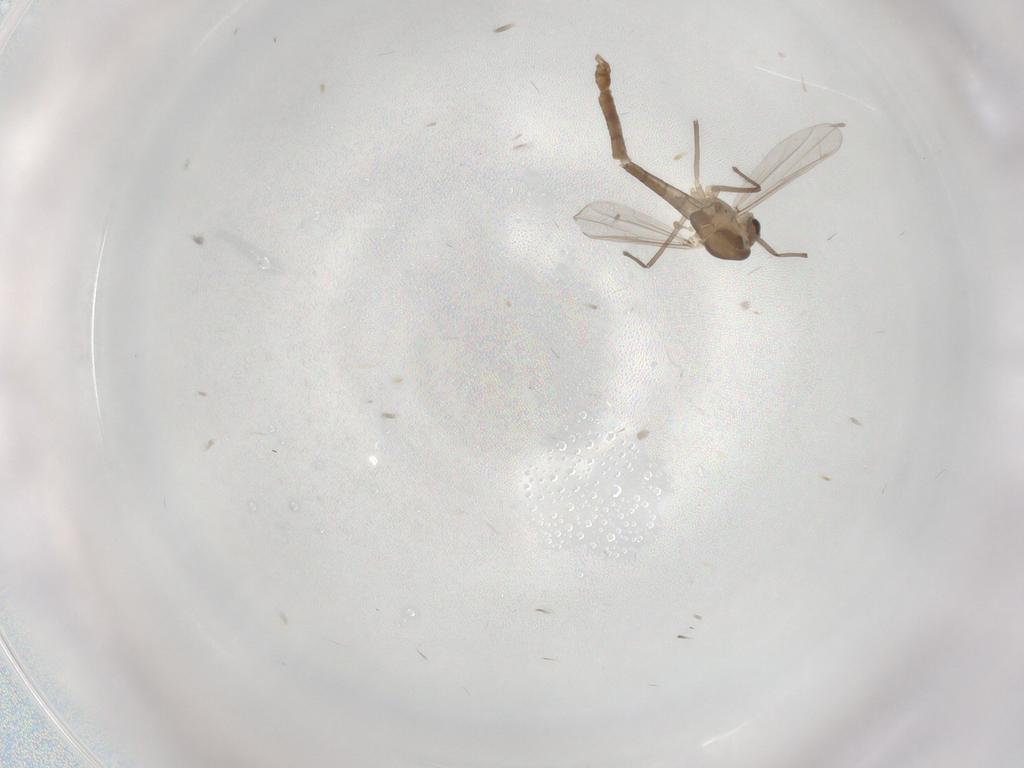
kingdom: Animalia
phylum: Arthropoda
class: Insecta
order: Diptera
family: Chironomidae
